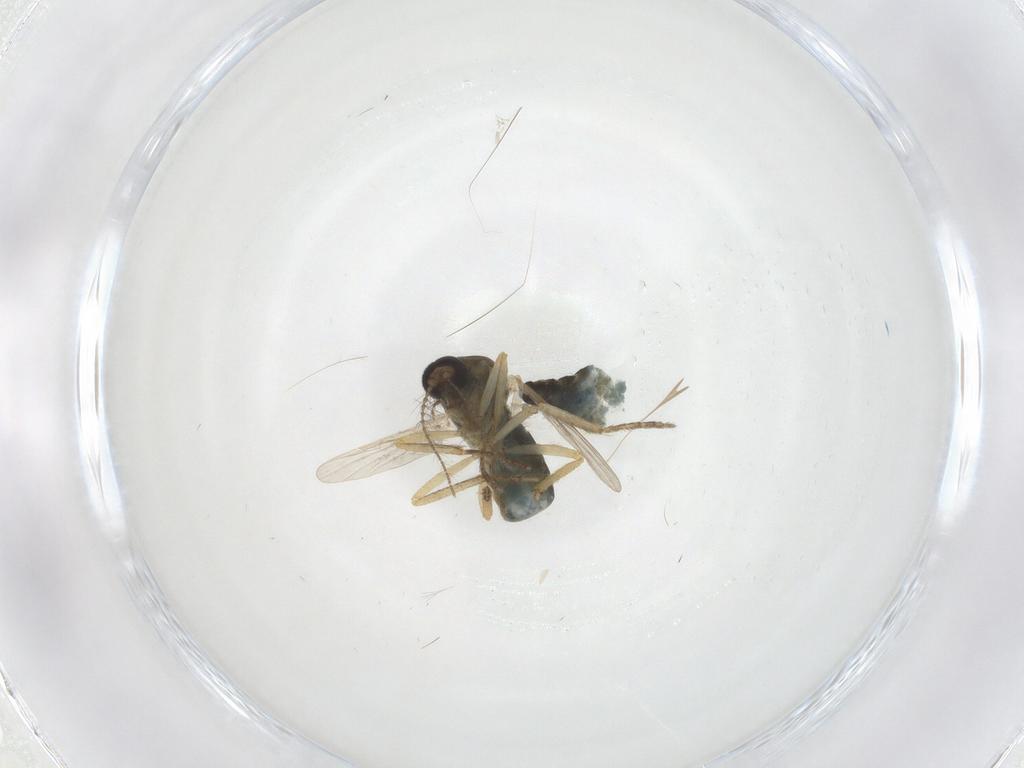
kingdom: Animalia
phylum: Arthropoda
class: Insecta
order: Diptera
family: Ceratopogonidae
